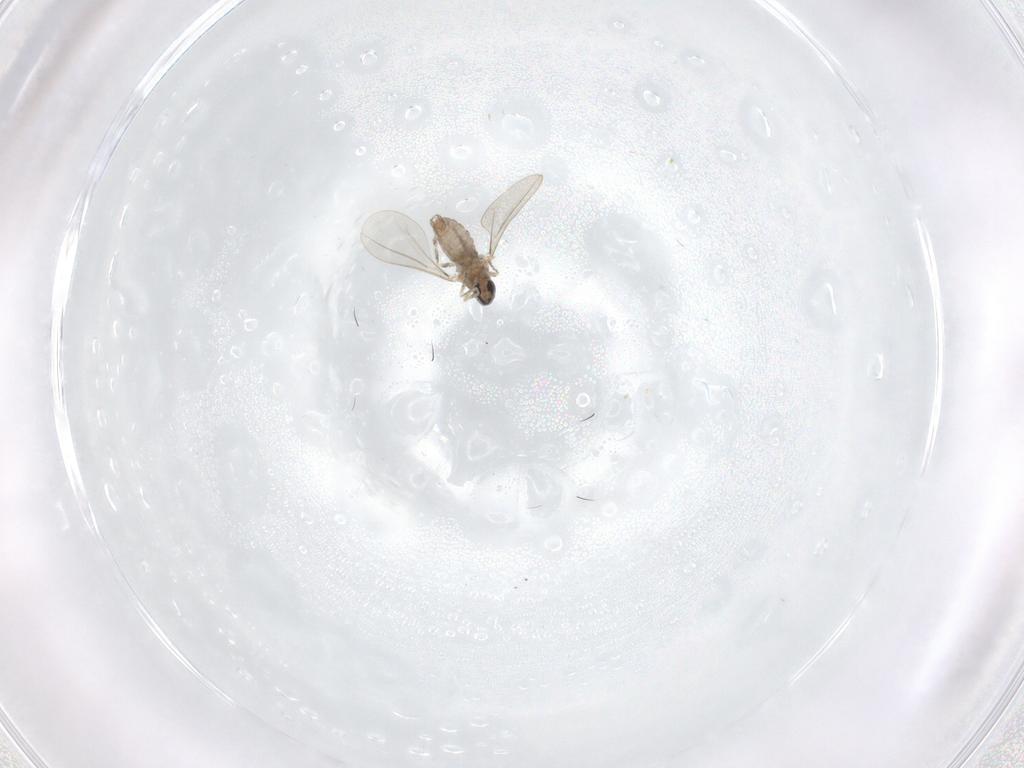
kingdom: Animalia
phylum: Arthropoda
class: Insecta
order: Diptera
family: Cecidomyiidae
